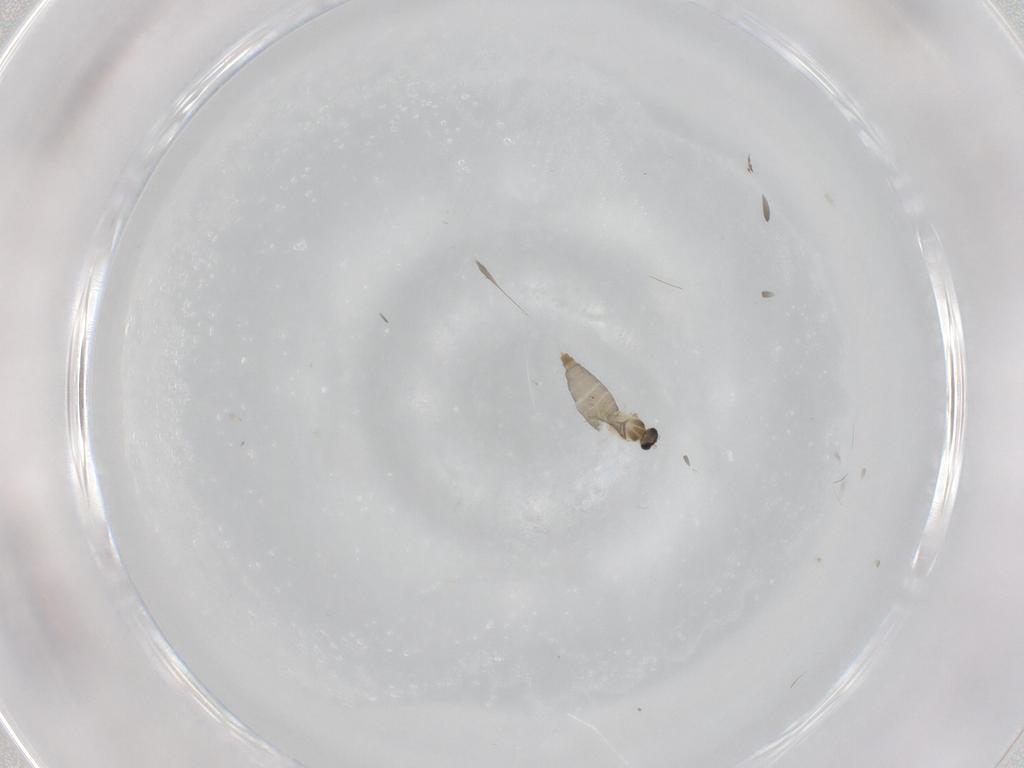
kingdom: Animalia
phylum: Arthropoda
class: Insecta
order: Diptera
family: Cecidomyiidae
